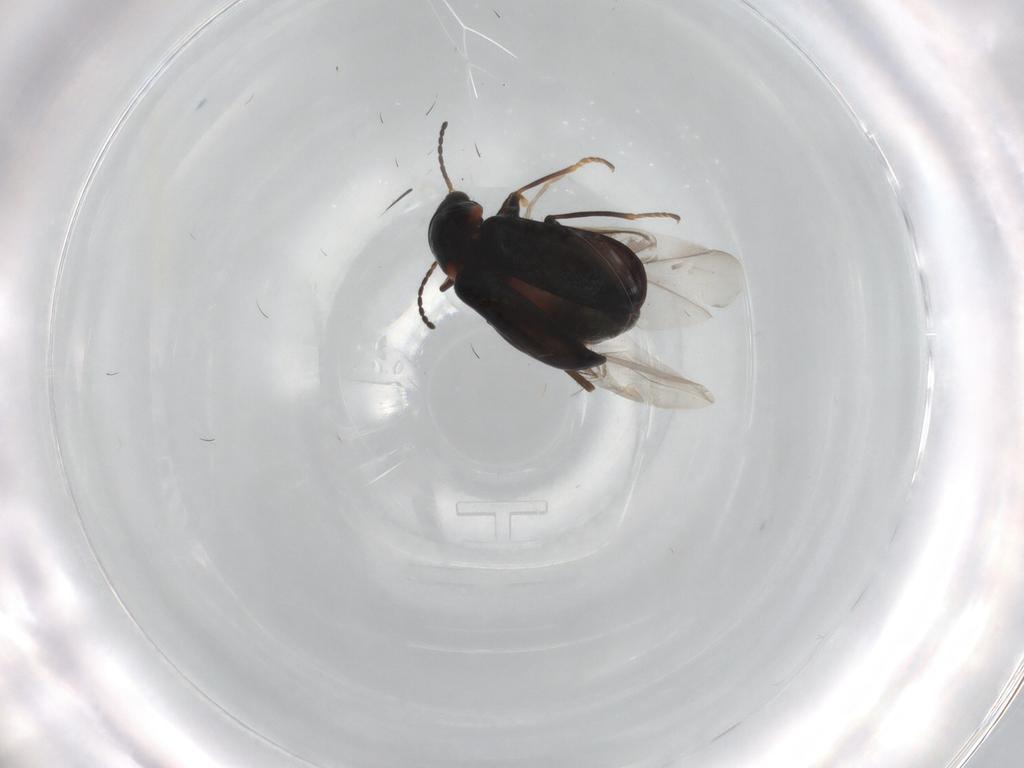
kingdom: Animalia
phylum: Arthropoda
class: Insecta
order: Coleoptera
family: Melyridae
